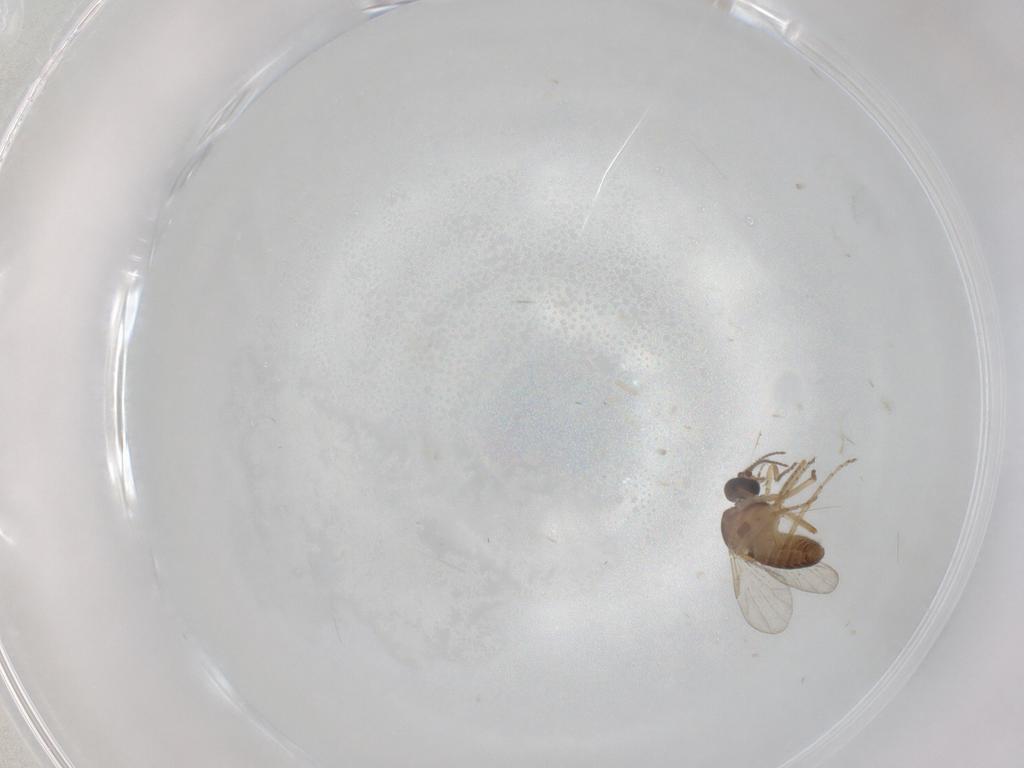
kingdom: Animalia
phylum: Arthropoda
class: Insecta
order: Diptera
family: Ceratopogonidae
